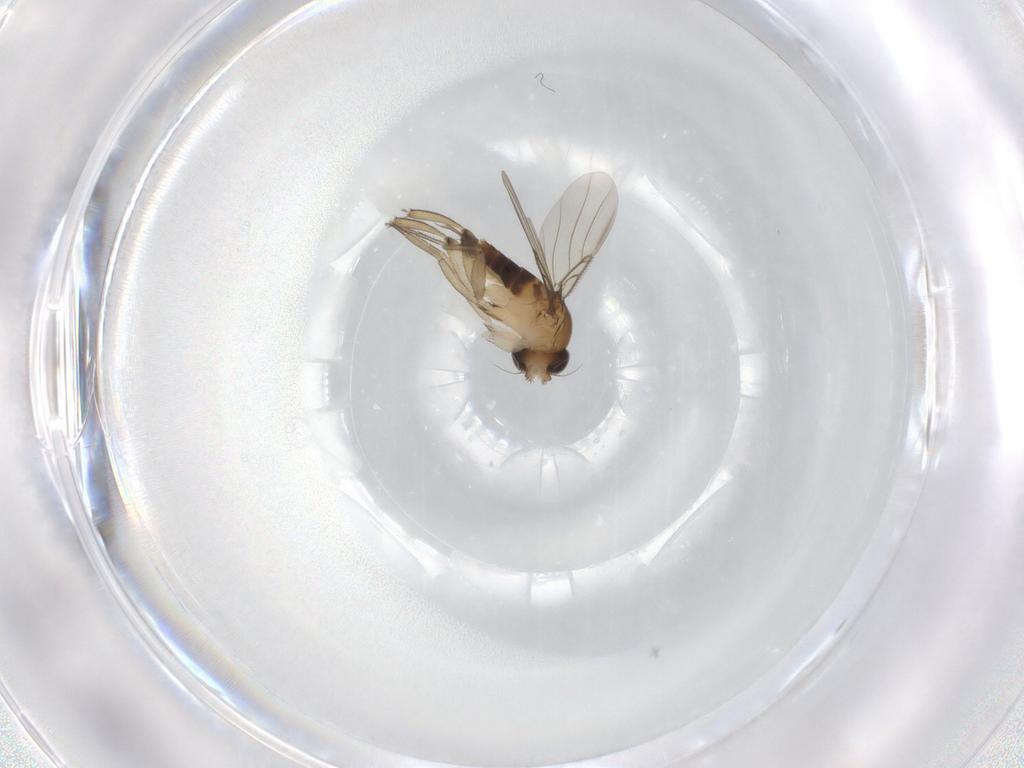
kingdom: Animalia
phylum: Arthropoda
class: Insecta
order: Diptera
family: Phoridae
